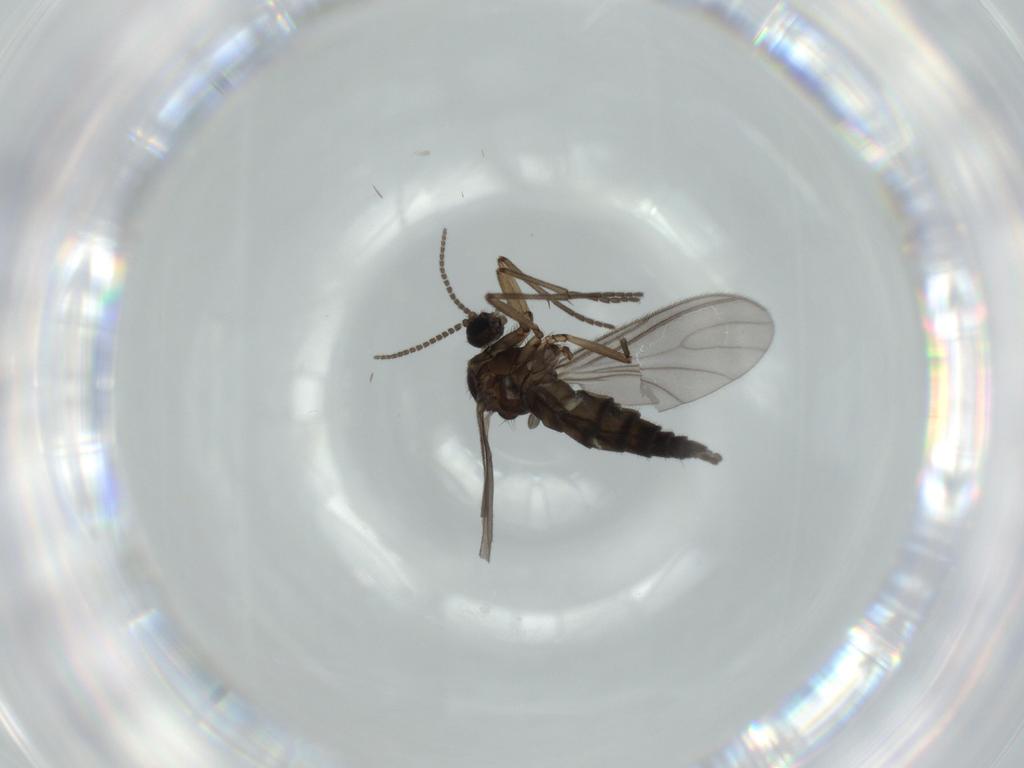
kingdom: Animalia
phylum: Arthropoda
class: Insecta
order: Diptera
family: Sciaridae
